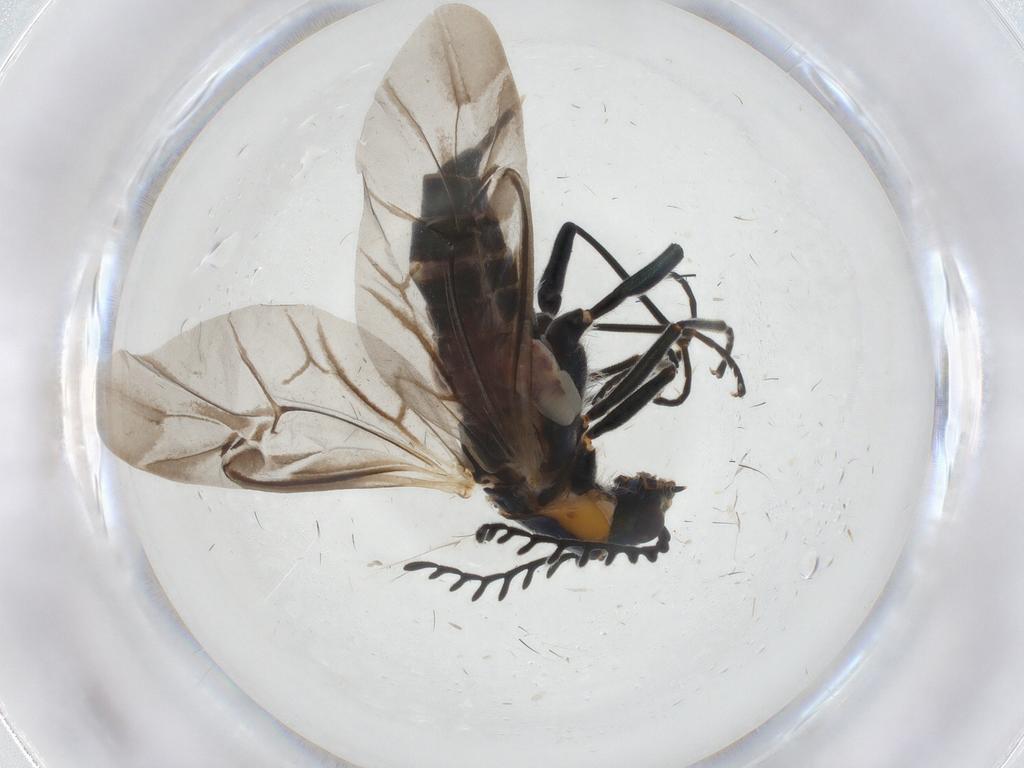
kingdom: Animalia
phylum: Arthropoda
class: Insecta
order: Coleoptera
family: Melyridae
